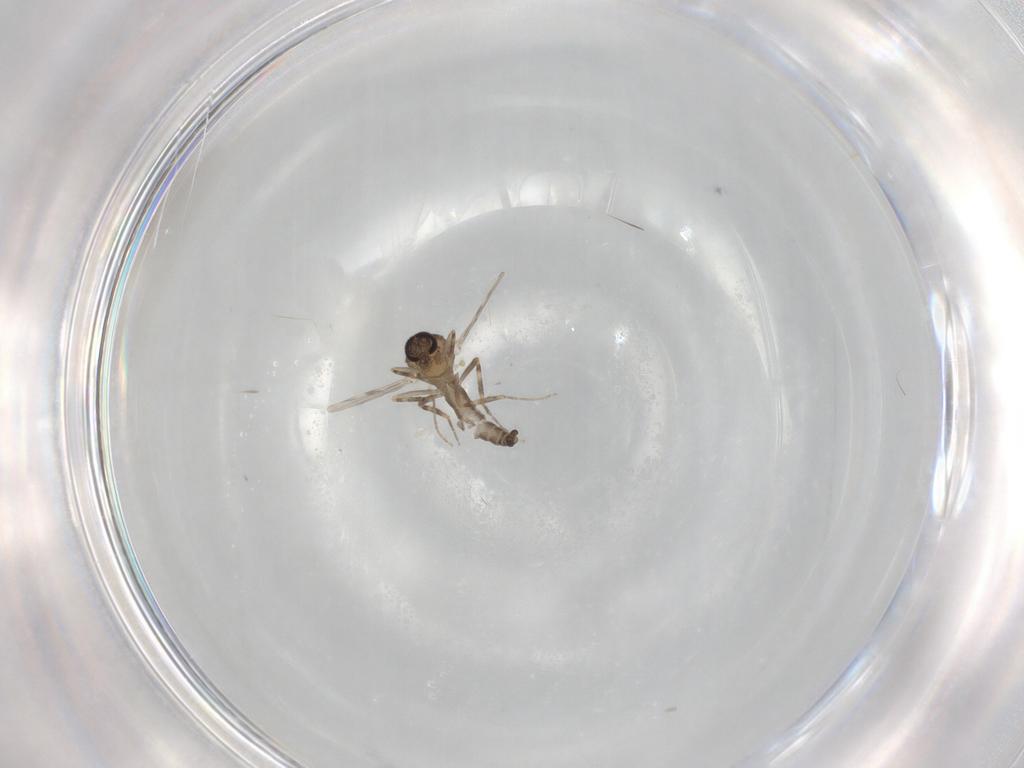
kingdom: Animalia
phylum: Arthropoda
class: Insecta
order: Diptera
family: Ceratopogonidae
